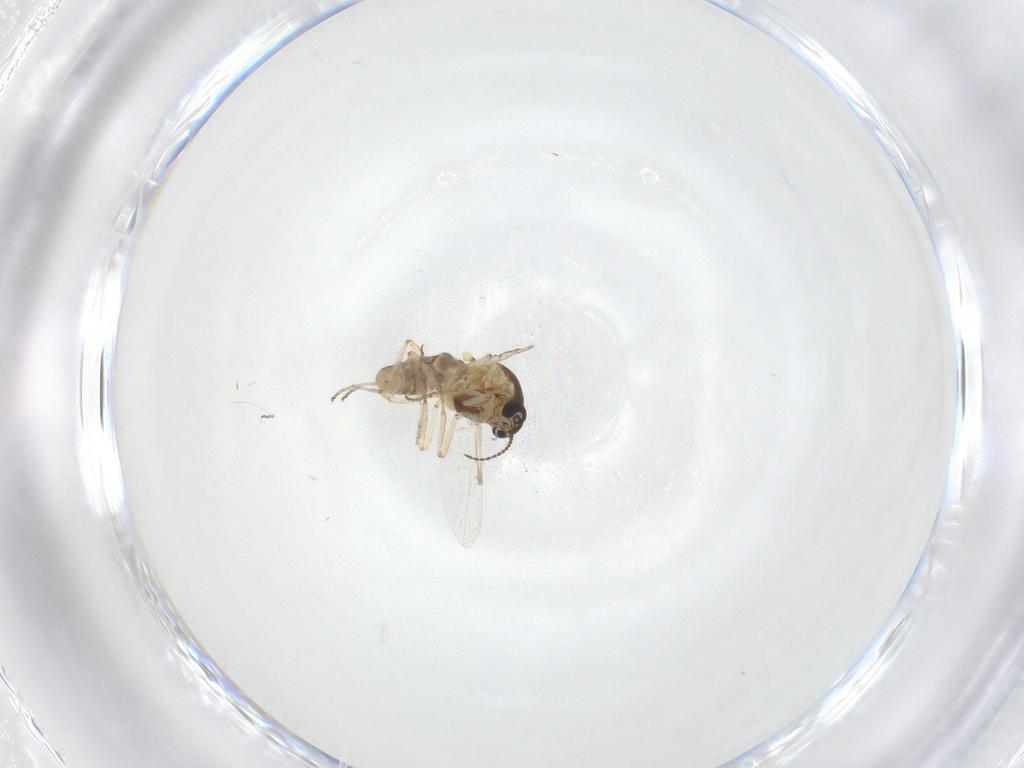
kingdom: Animalia
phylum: Arthropoda
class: Insecta
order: Diptera
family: Ceratopogonidae
